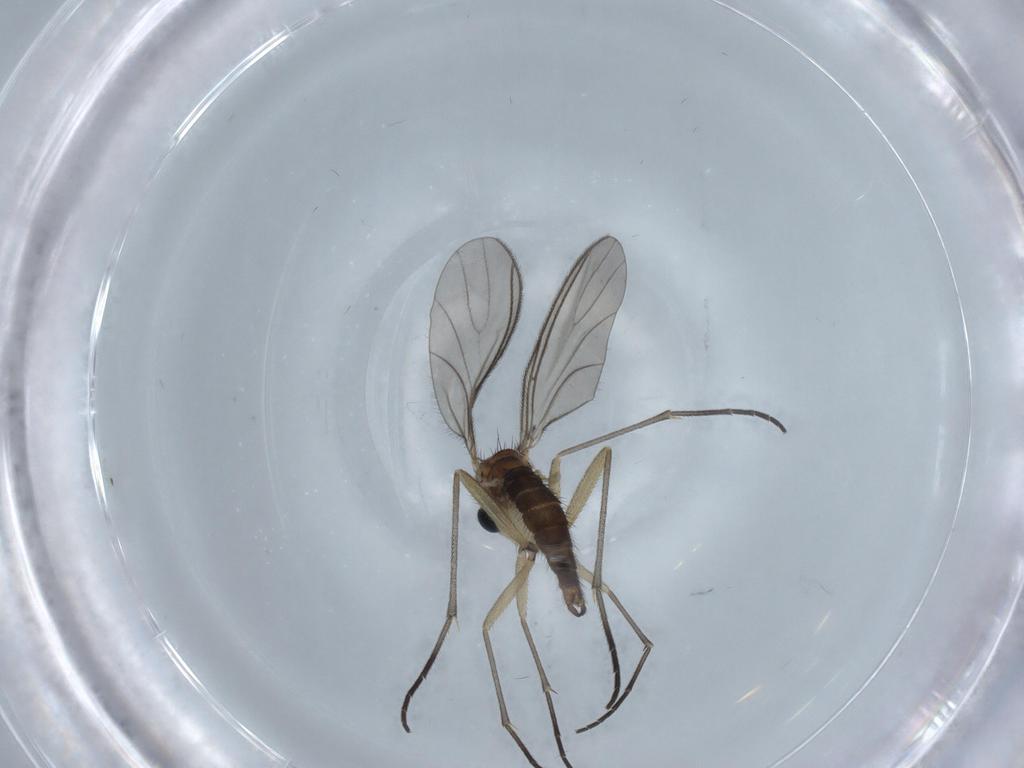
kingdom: Animalia
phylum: Arthropoda
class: Insecta
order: Diptera
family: Sciaridae
